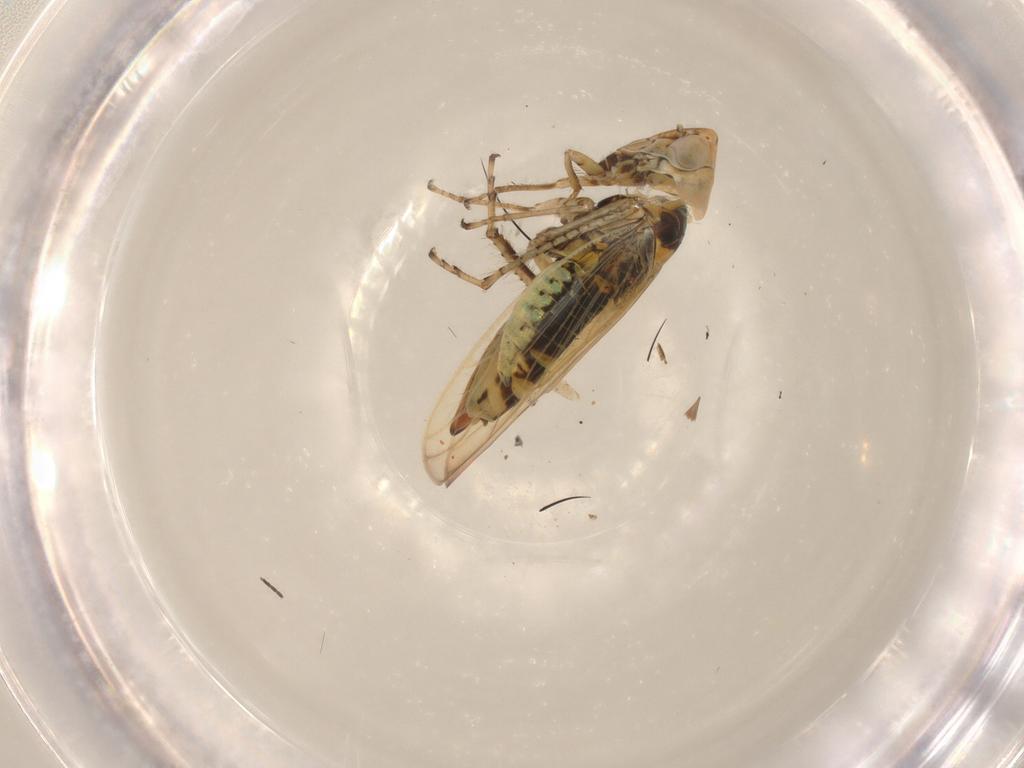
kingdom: Animalia
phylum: Arthropoda
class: Insecta
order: Hemiptera
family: Cicadellidae
